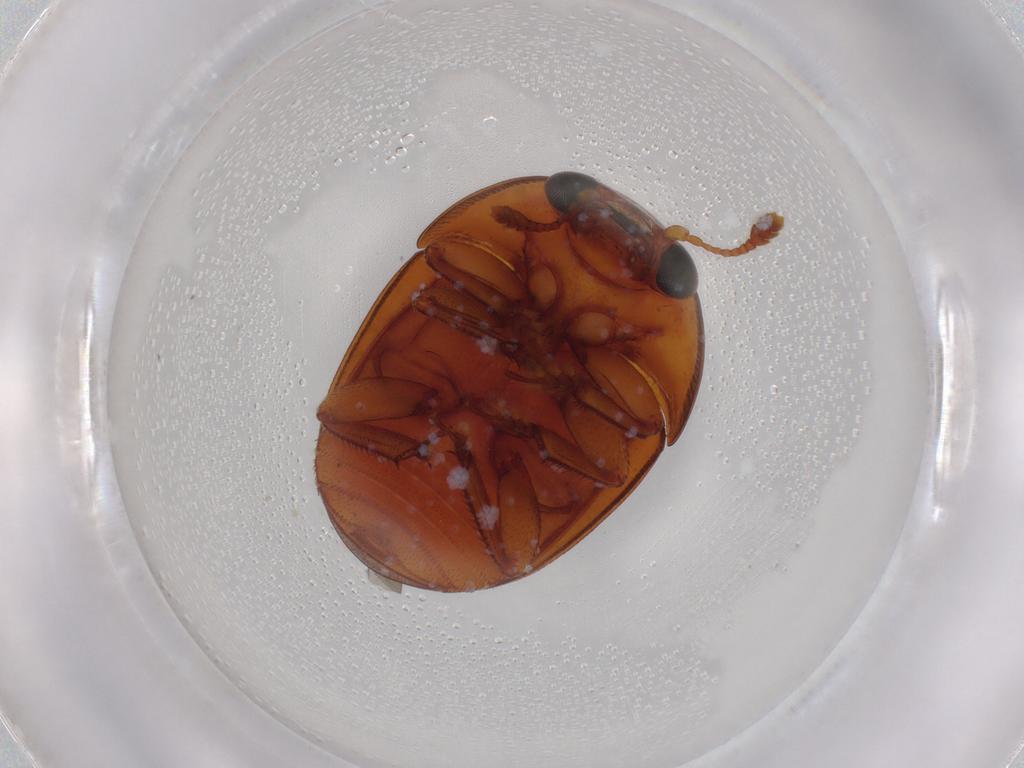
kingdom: Animalia
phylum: Arthropoda
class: Insecta
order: Coleoptera
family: Nitidulidae
